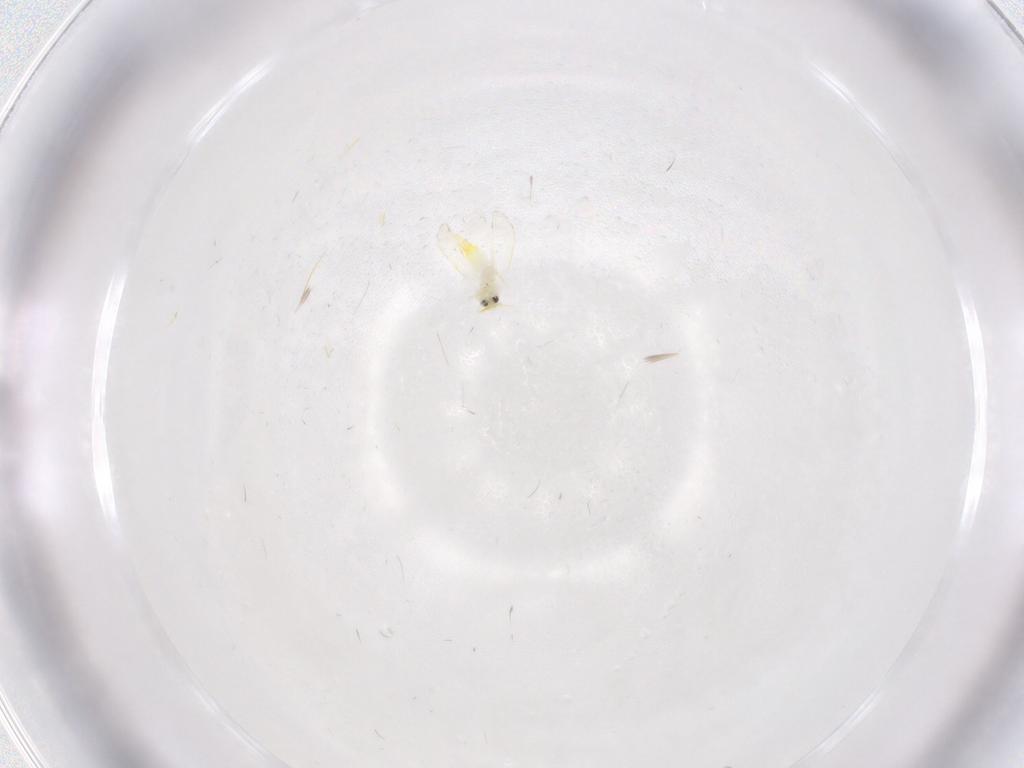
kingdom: Animalia
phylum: Arthropoda
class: Insecta
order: Hemiptera
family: Aleyrodidae
